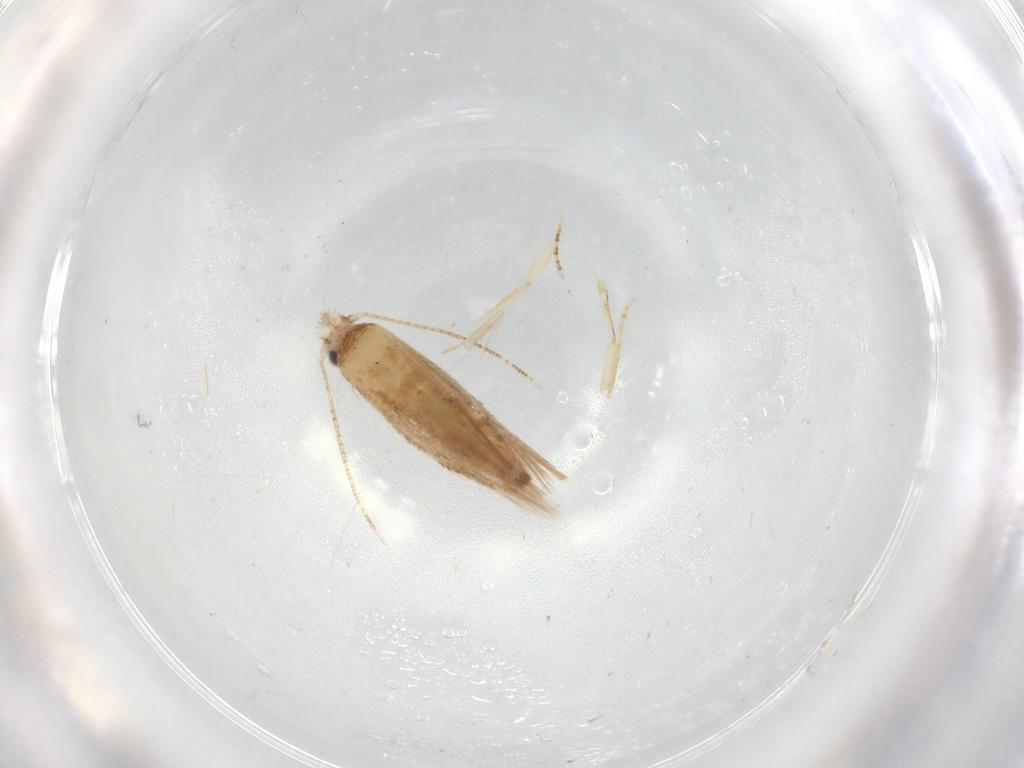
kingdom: Animalia
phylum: Arthropoda
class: Insecta
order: Lepidoptera
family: Bucculatricidae
